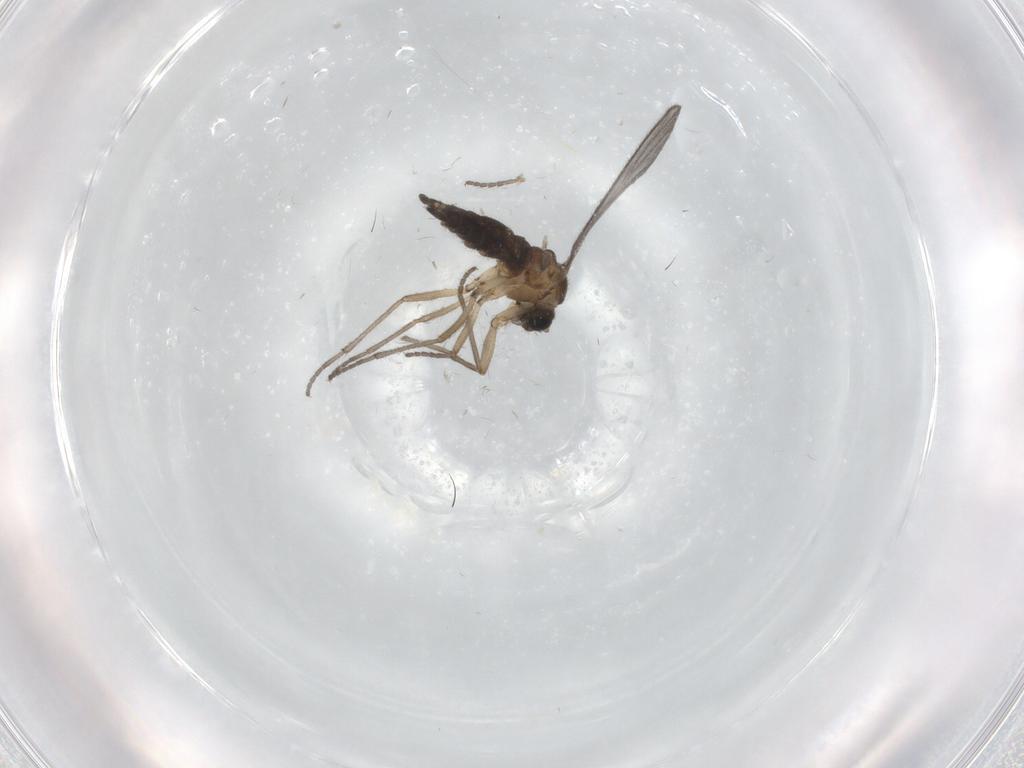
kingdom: Animalia
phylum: Arthropoda
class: Insecta
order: Diptera
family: Sciaridae
